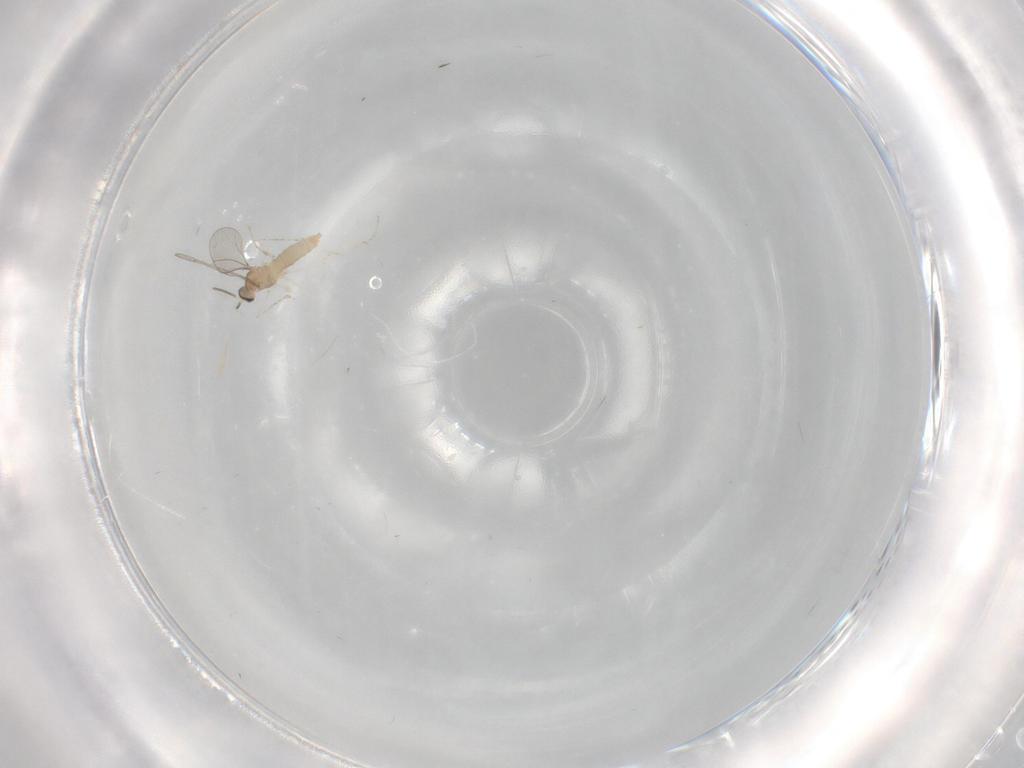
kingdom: Animalia
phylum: Arthropoda
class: Insecta
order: Diptera
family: Cecidomyiidae
